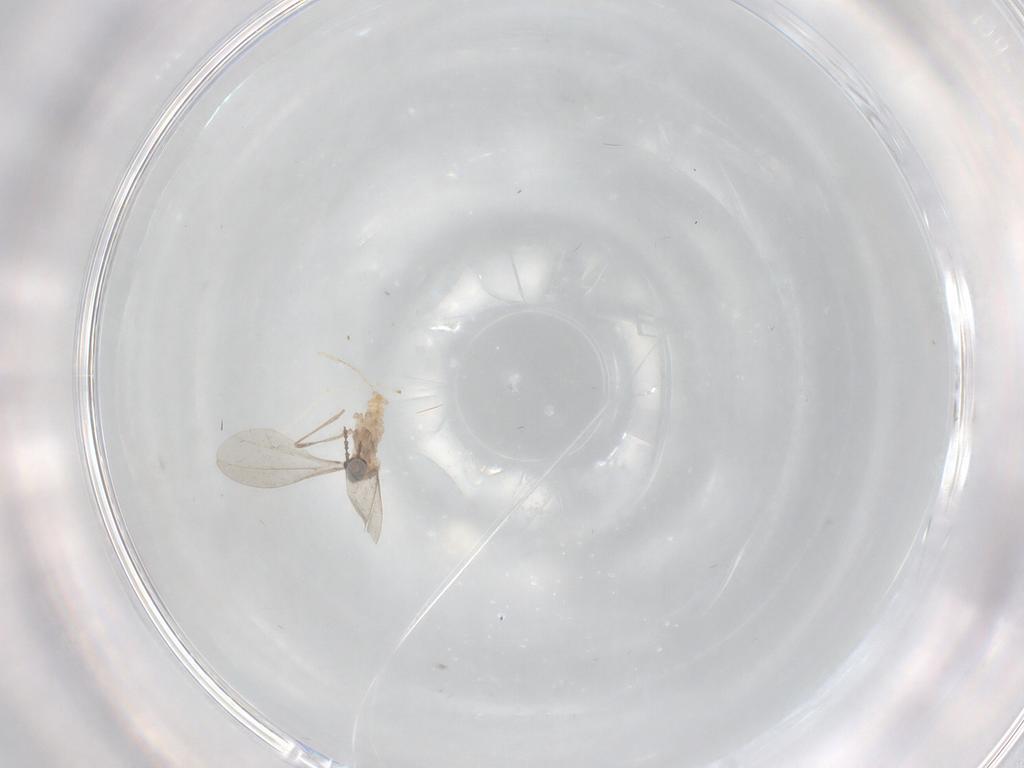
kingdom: Animalia
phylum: Arthropoda
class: Insecta
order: Diptera
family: Cecidomyiidae
